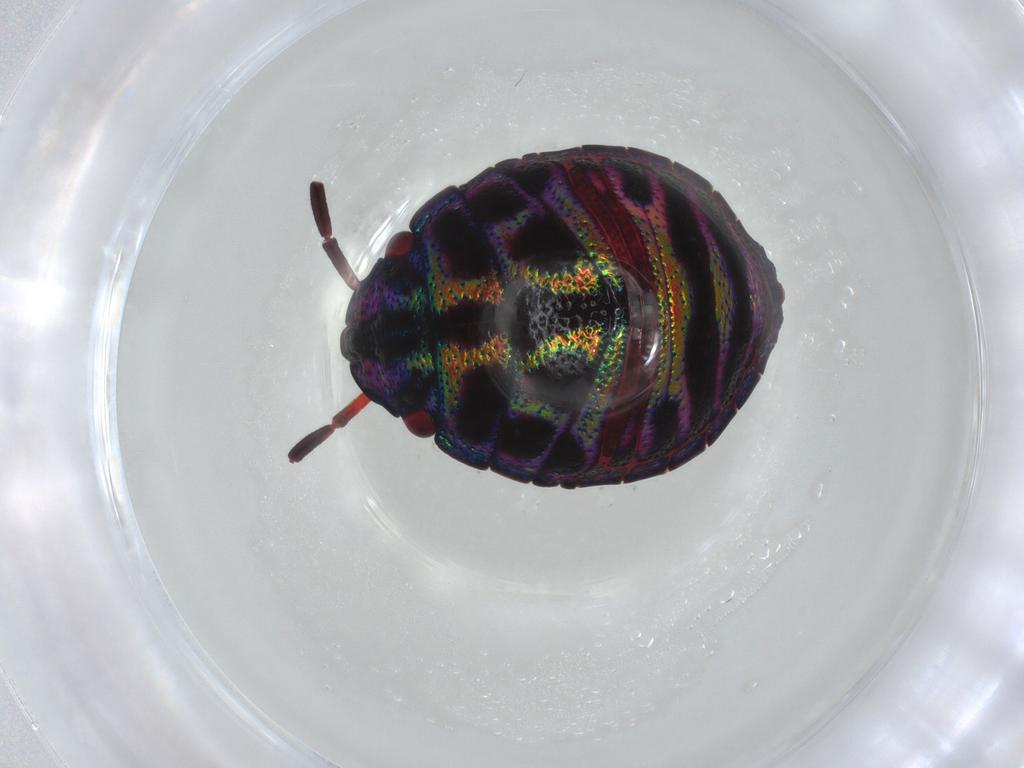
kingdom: Animalia
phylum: Arthropoda
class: Insecta
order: Hemiptera
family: Scutelleridae
